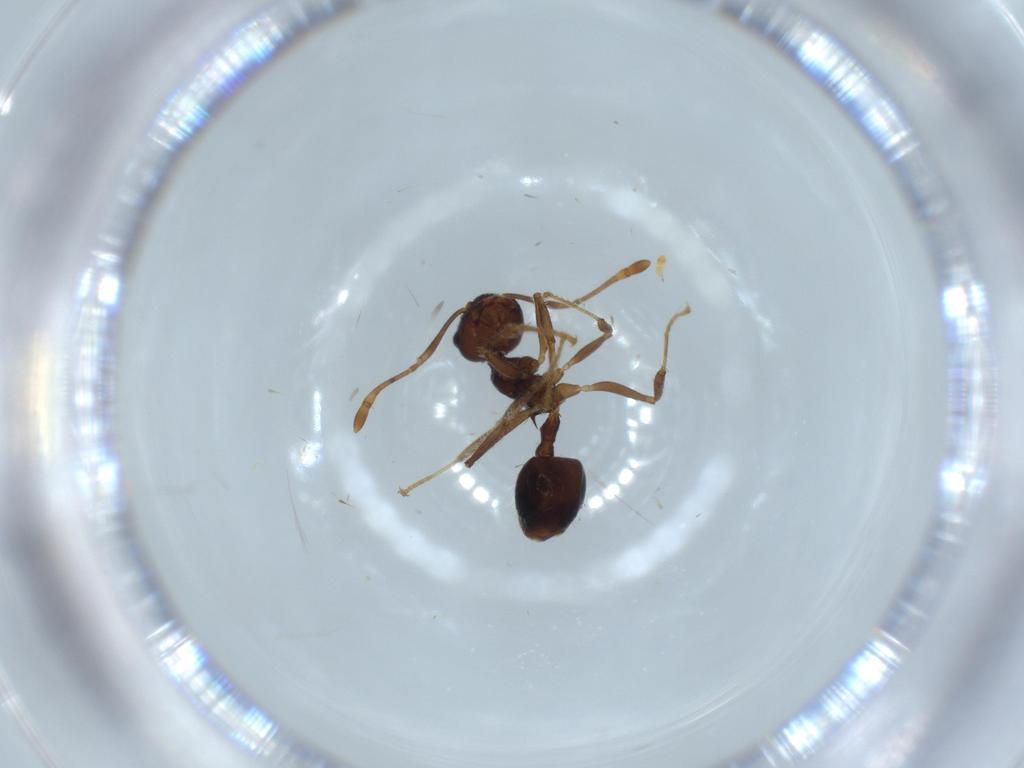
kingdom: Animalia
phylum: Arthropoda
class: Insecta
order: Hymenoptera
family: Formicidae
